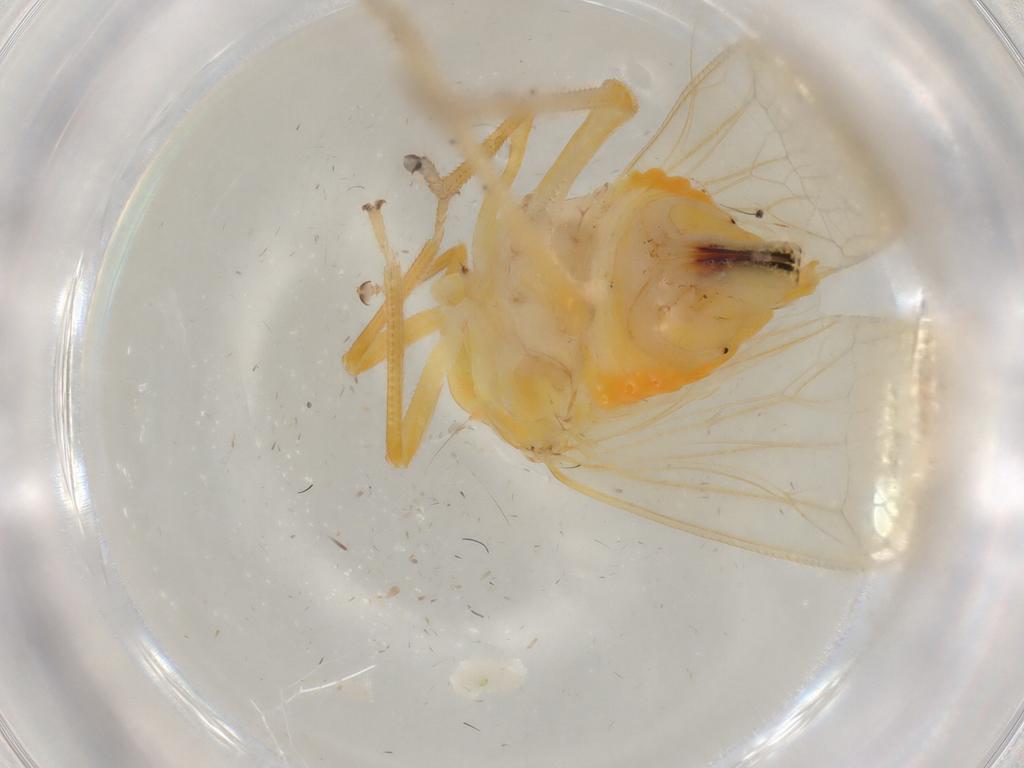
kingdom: Animalia
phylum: Arthropoda
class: Insecta
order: Hemiptera
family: Tropiduchidae
